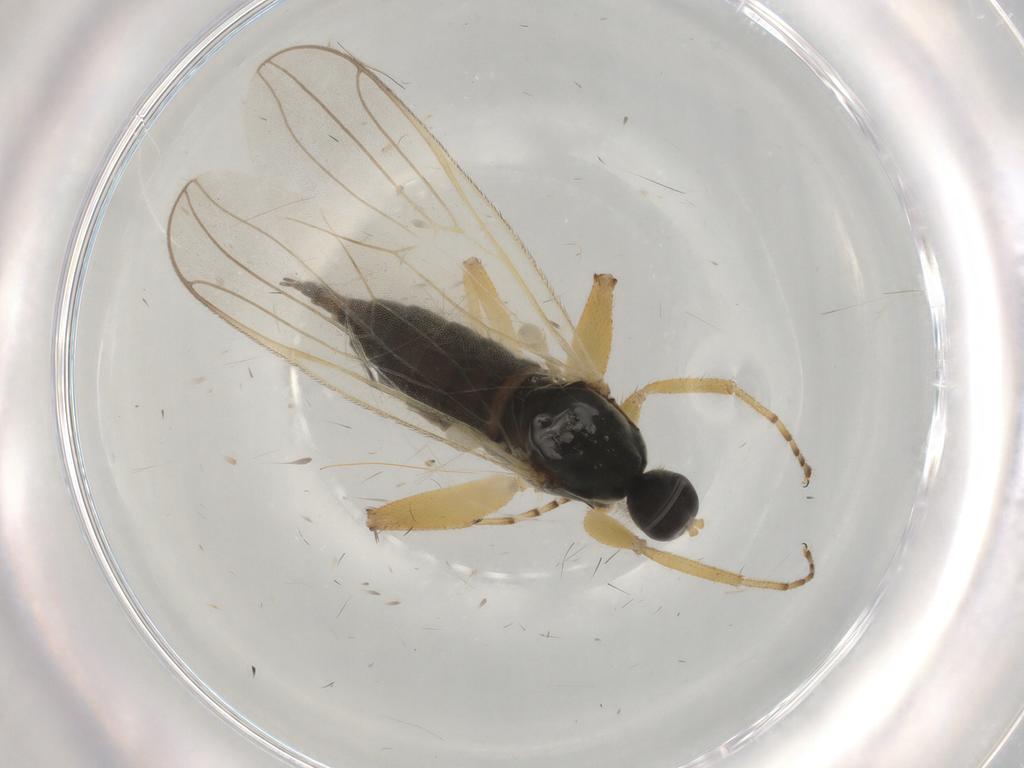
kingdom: Animalia
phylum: Arthropoda
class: Insecta
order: Diptera
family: Hybotidae
